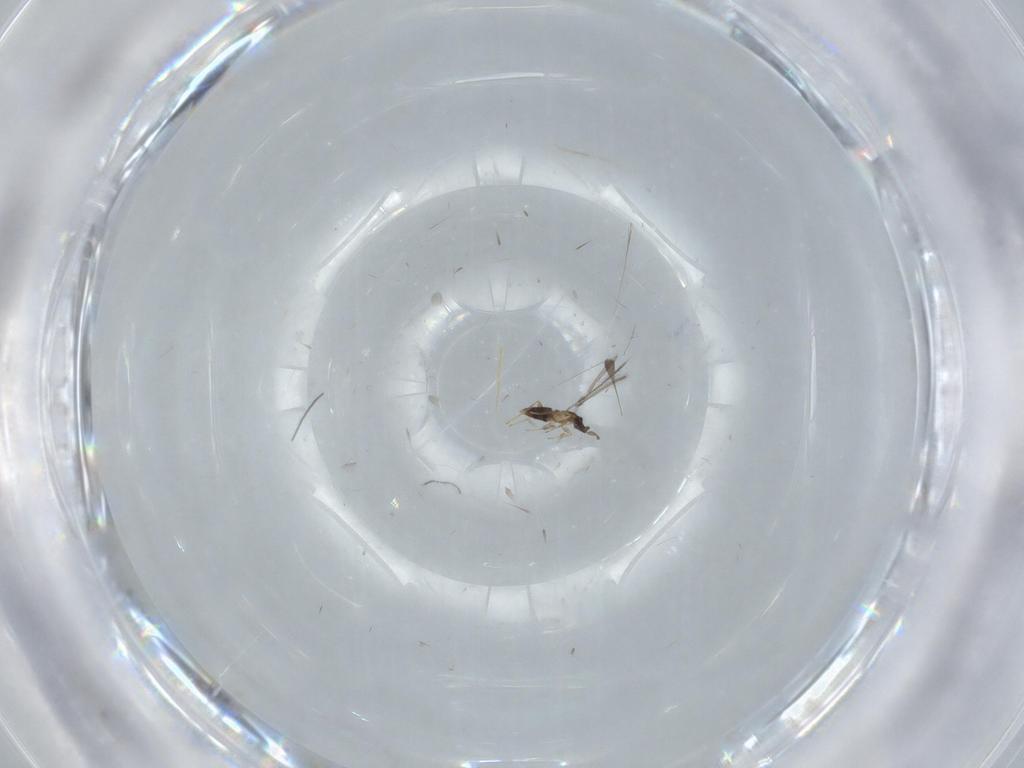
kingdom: Animalia
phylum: Arthropoda
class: Insecta
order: Hymenoptera
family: Mymaridae
